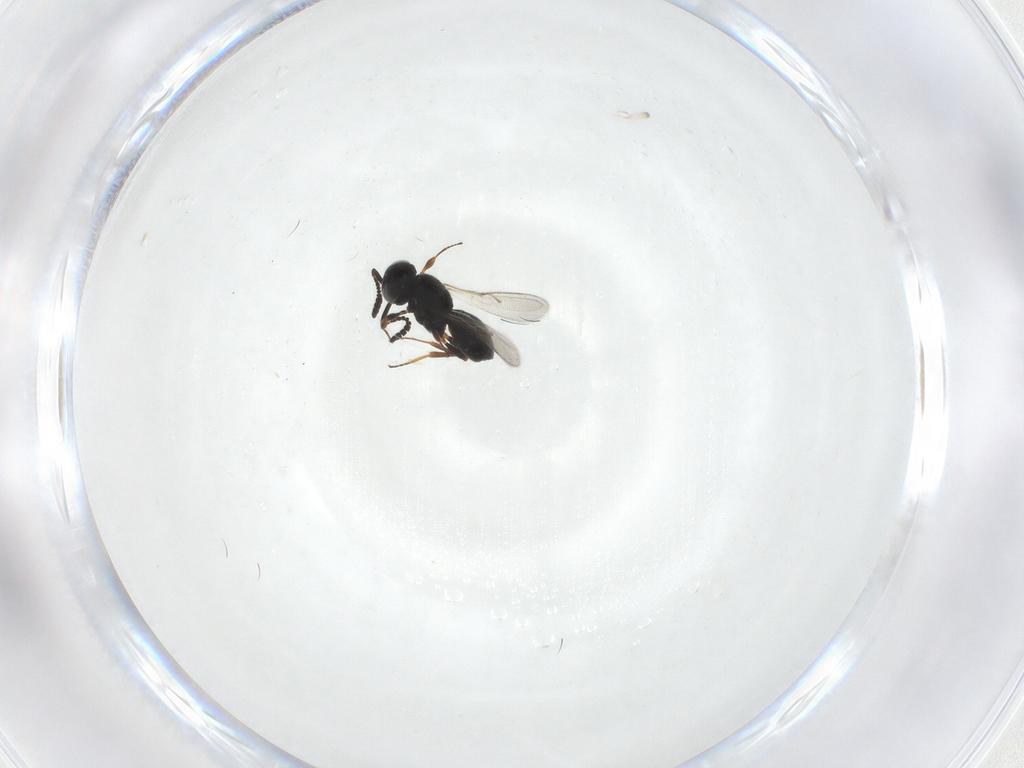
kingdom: Animalia
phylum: Arthropoda
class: Insecta
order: Hymenoptera
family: Scelionidae
